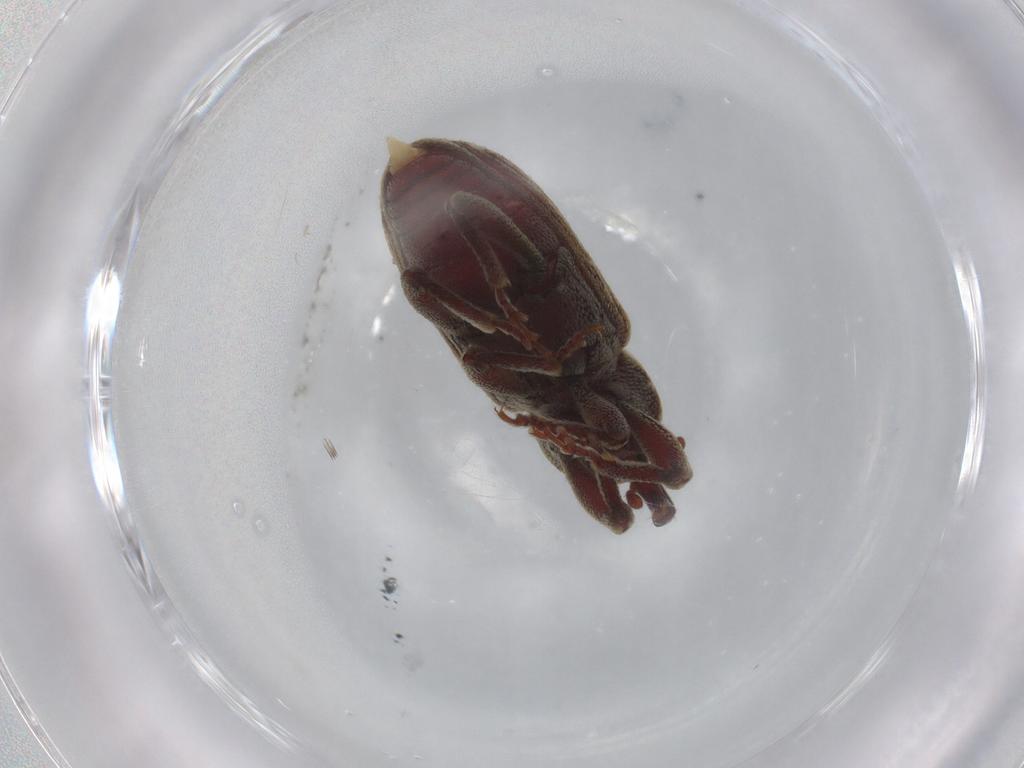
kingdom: Animalia
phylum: Arthropoda
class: Insecta
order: Coleoptera
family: Curculionidae
